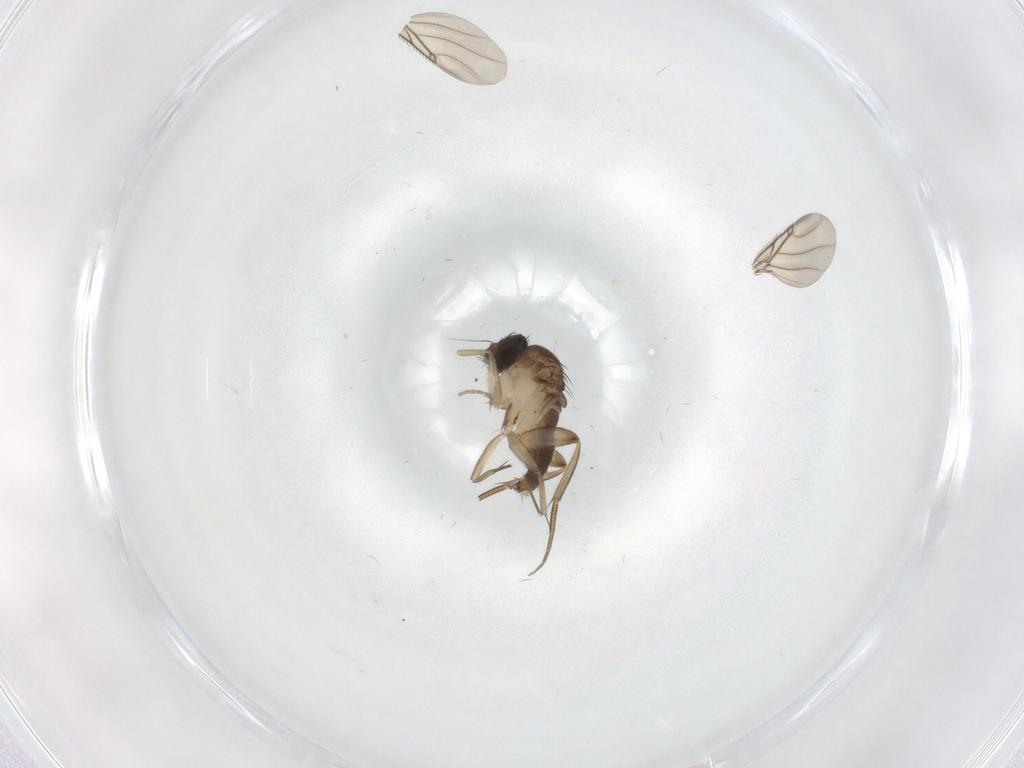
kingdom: Animalia
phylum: Arthropoda
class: Insecta
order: Diptera
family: Phoridae
